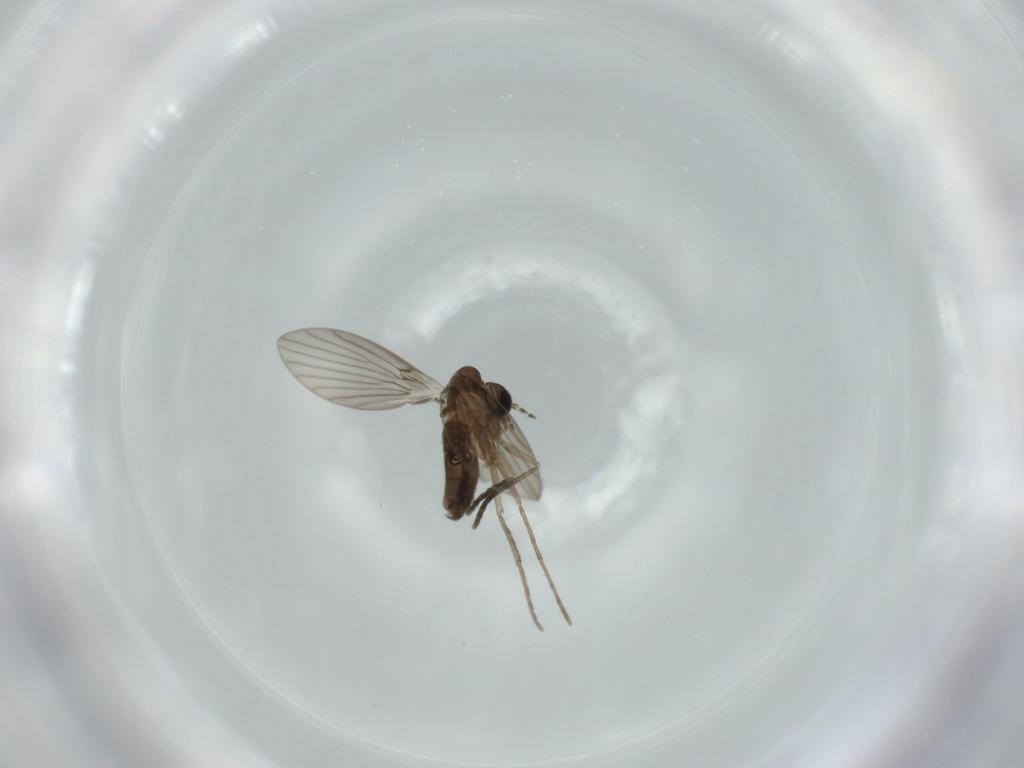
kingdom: Animalia
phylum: Arthropoda
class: Insecta
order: Diptera
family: Psychodidae
